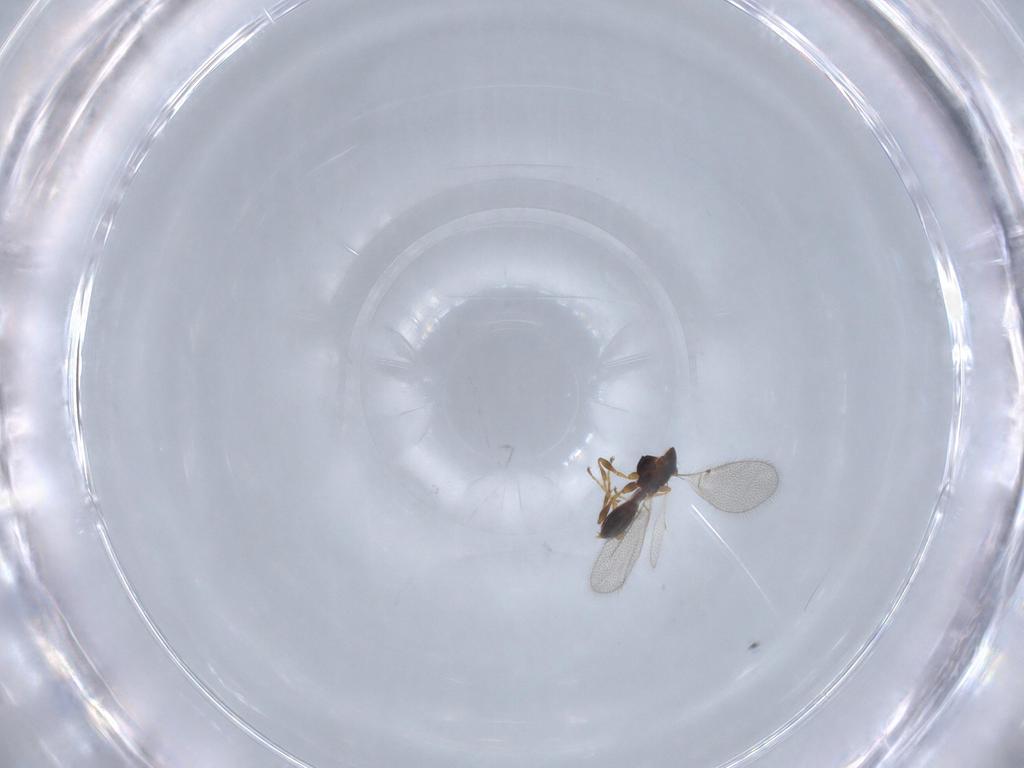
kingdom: Animalia
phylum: Arthropoda
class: Insecta
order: Hymenoptera
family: Diapriidae
